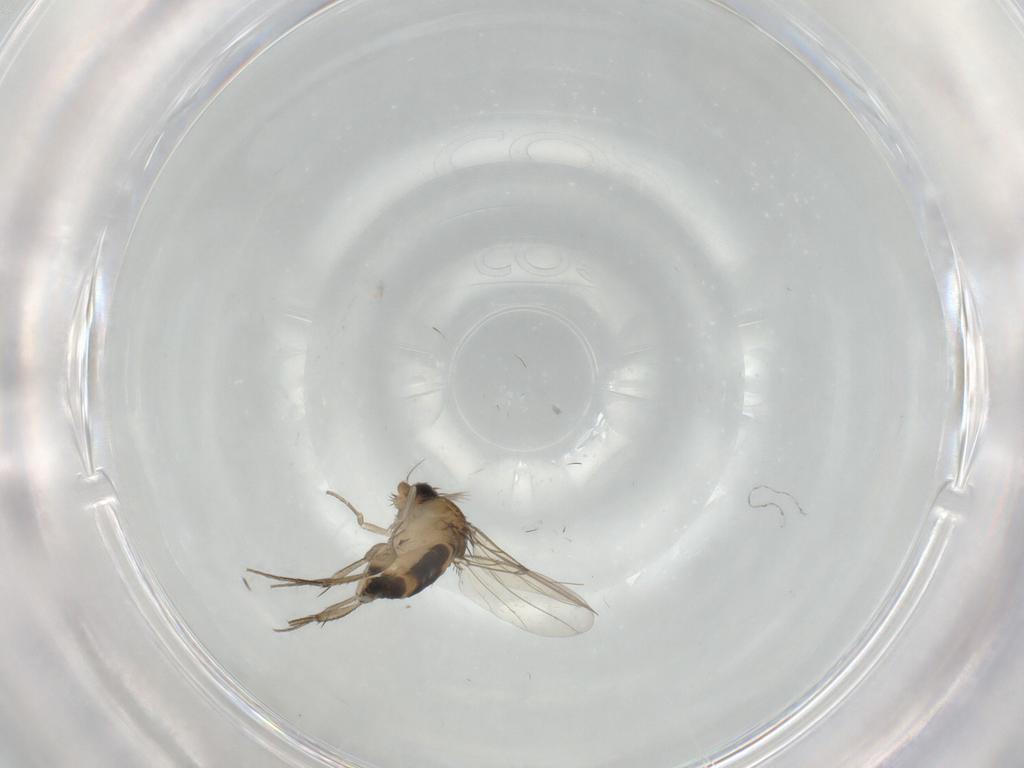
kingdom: Animalia
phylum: Arthropoda
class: Insecta
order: Diptera
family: Phoridae
